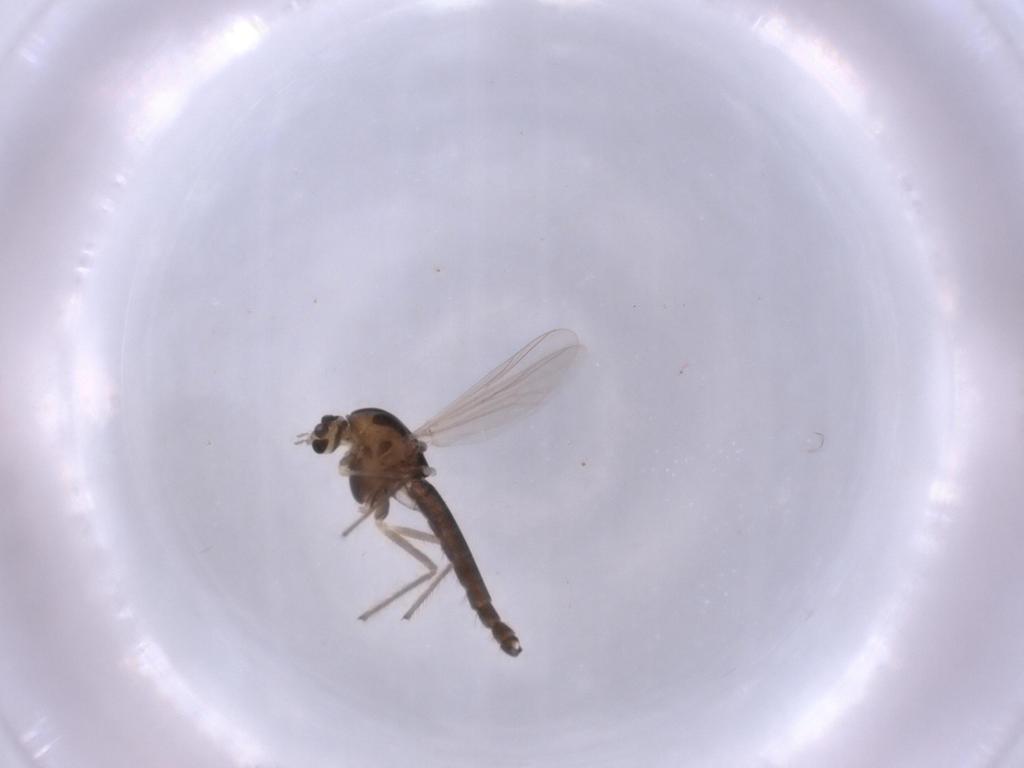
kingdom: Animalia
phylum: Arthropoda
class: Insecta
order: Diptera
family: Chironomidae
